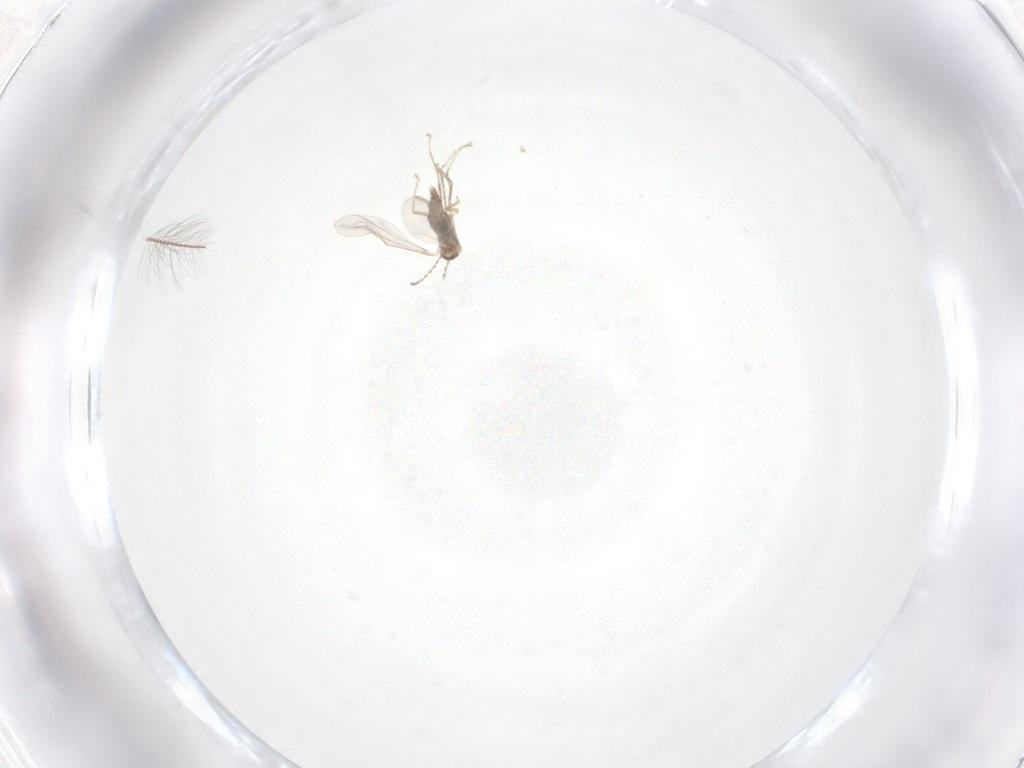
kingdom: Animalia
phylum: Arthropoda
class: Insecta
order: Diptera
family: Cecidomyiidae
